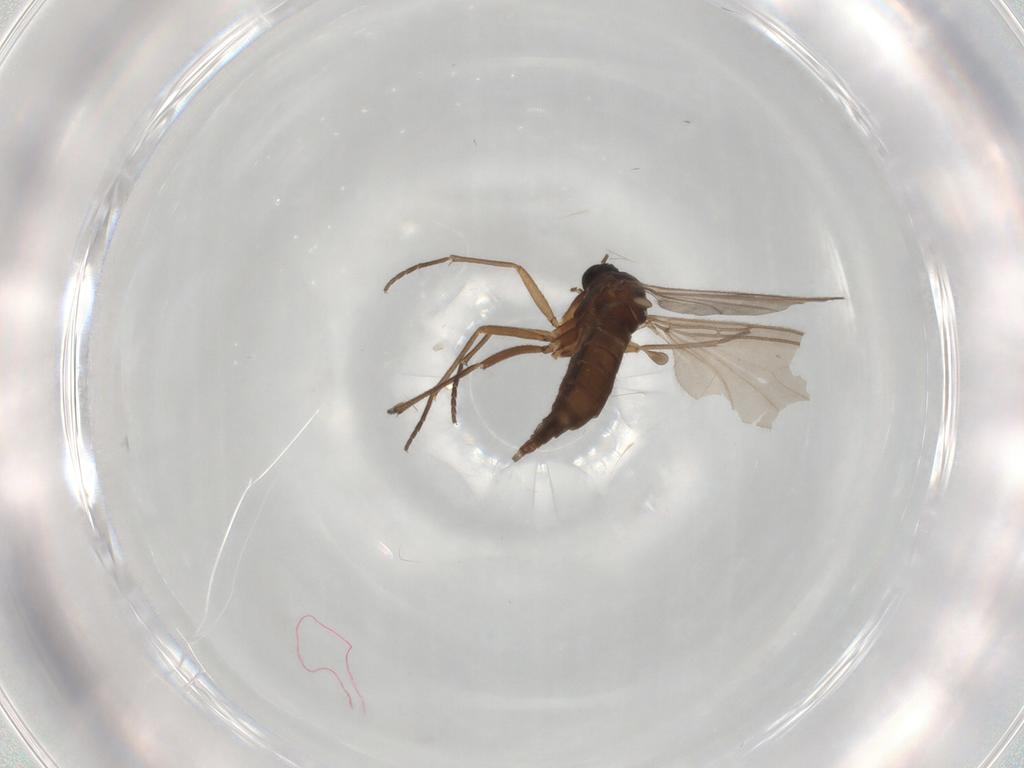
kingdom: Animalia
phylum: Arthropoda
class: Insecta
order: Diptera
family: Sciaridae
